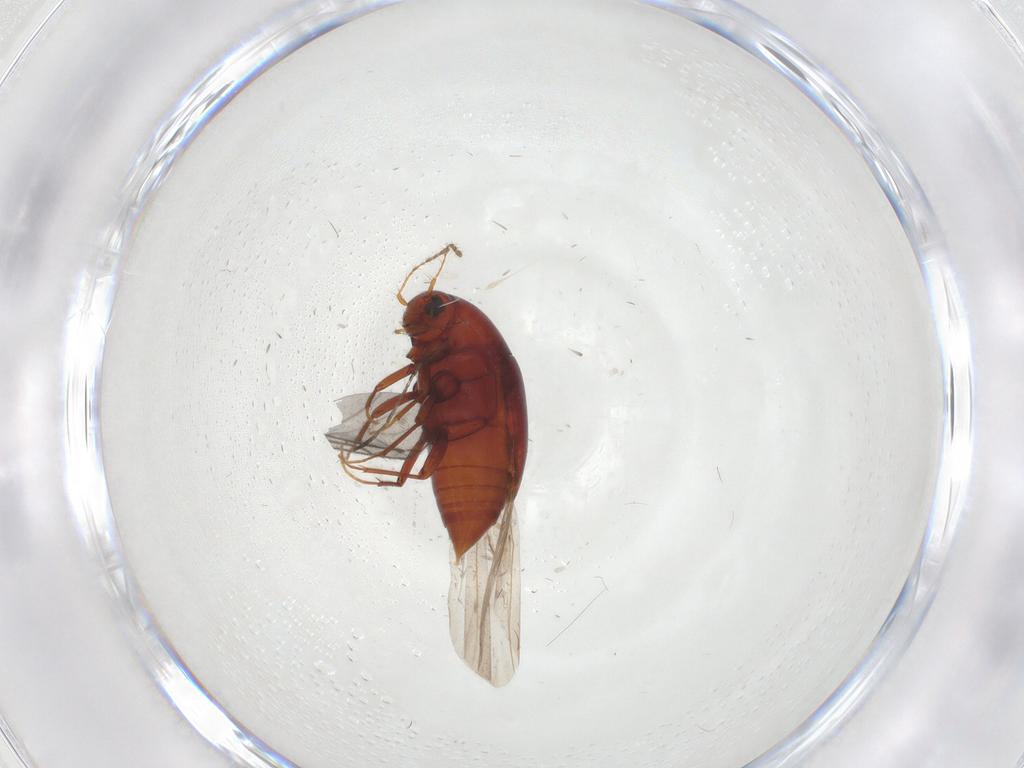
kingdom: Animalia
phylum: Arthropoda
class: Insecta
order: Coleoptera
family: Staphylinidae
